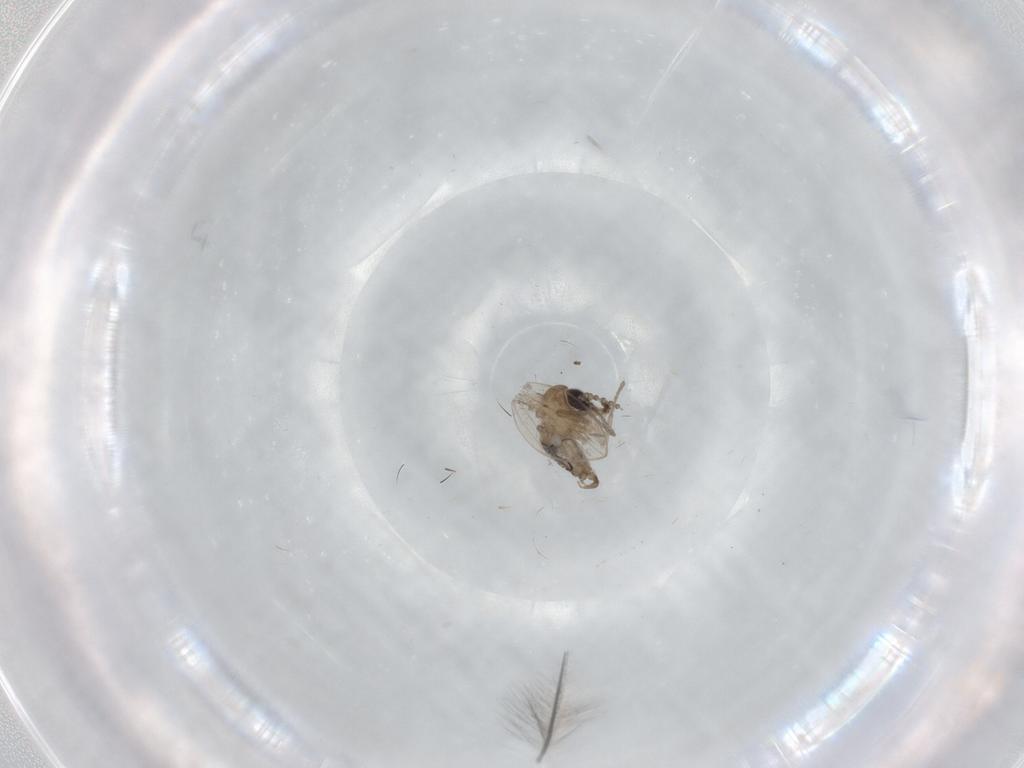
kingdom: Animalia
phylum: Arthropoda
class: Insecta
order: Diptera
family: Psychodidae
